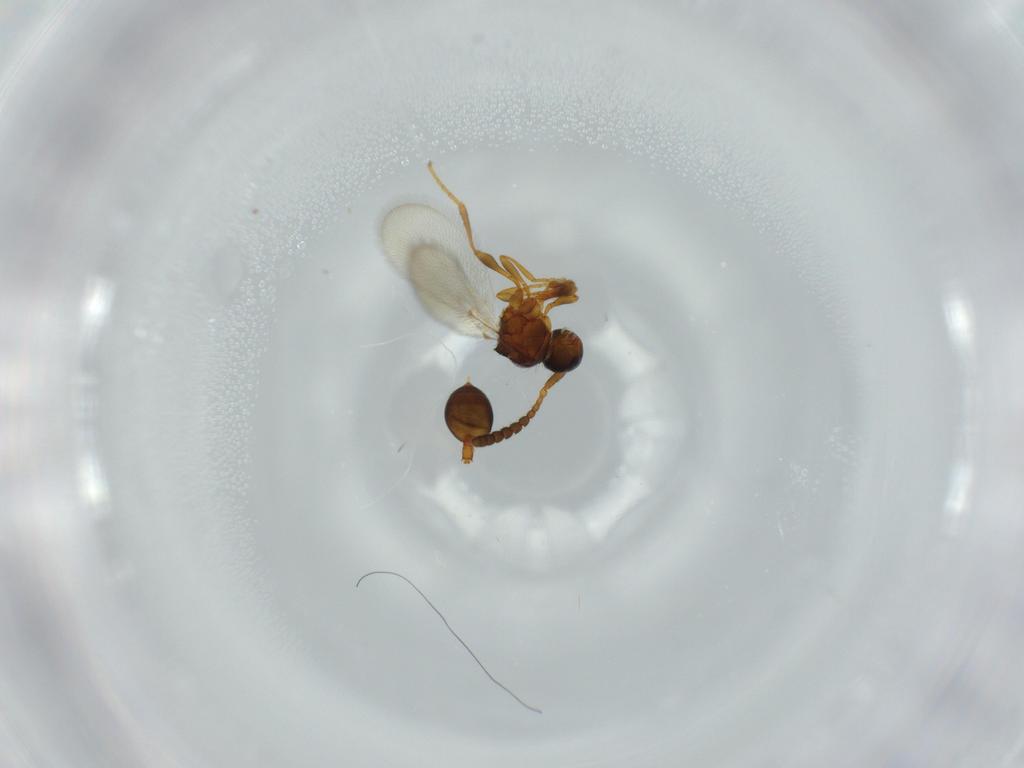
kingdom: Animalia
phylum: Arthropoda
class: Insecta
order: Hymenoptera
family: Diapriidae
